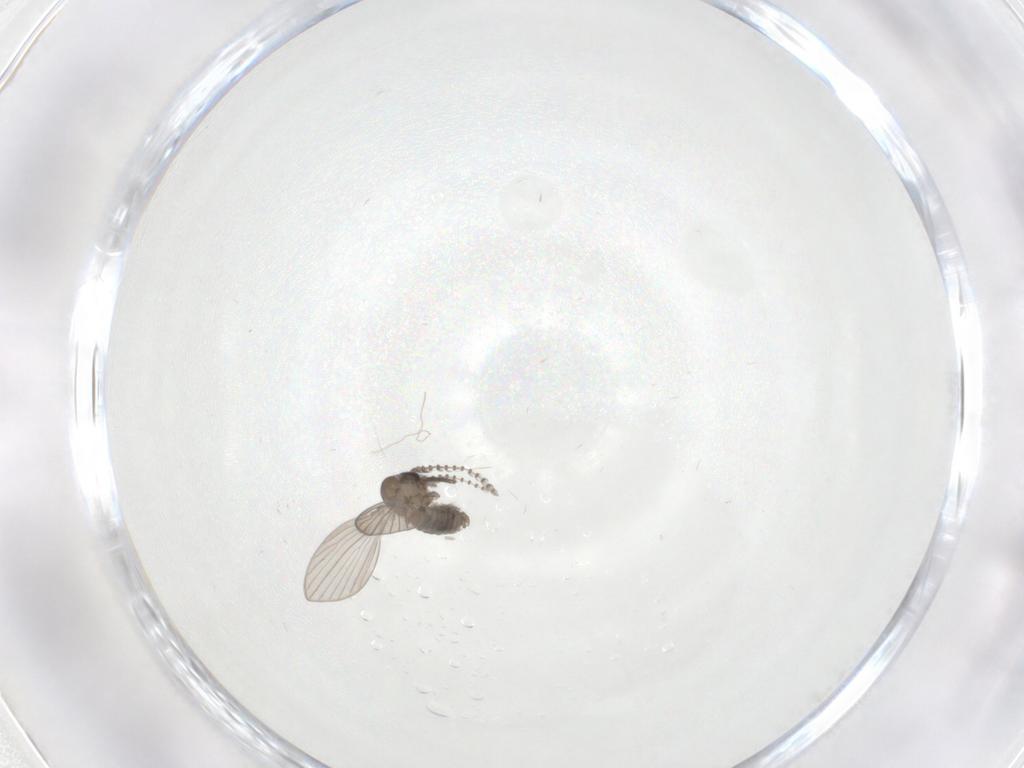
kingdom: Animalia
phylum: Arthropoda
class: Insecta
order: Diptera
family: Psychodidae
